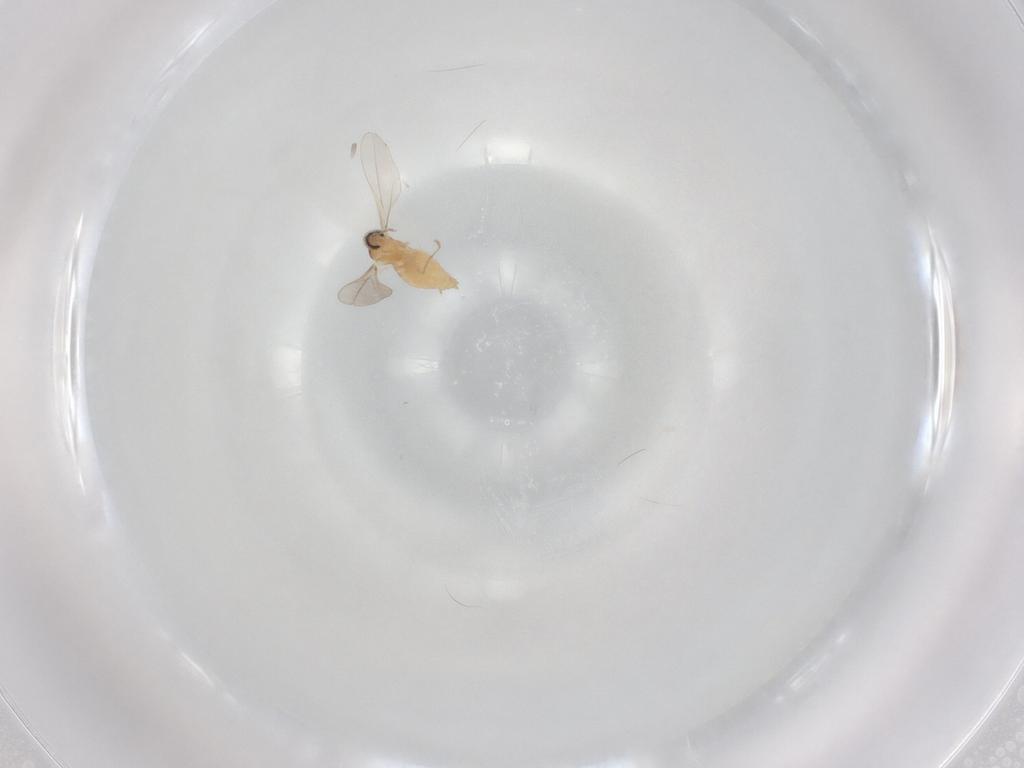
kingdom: Animalia
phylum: Arthropoda
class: Insecta
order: Diptera
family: Cecidomyiidae
